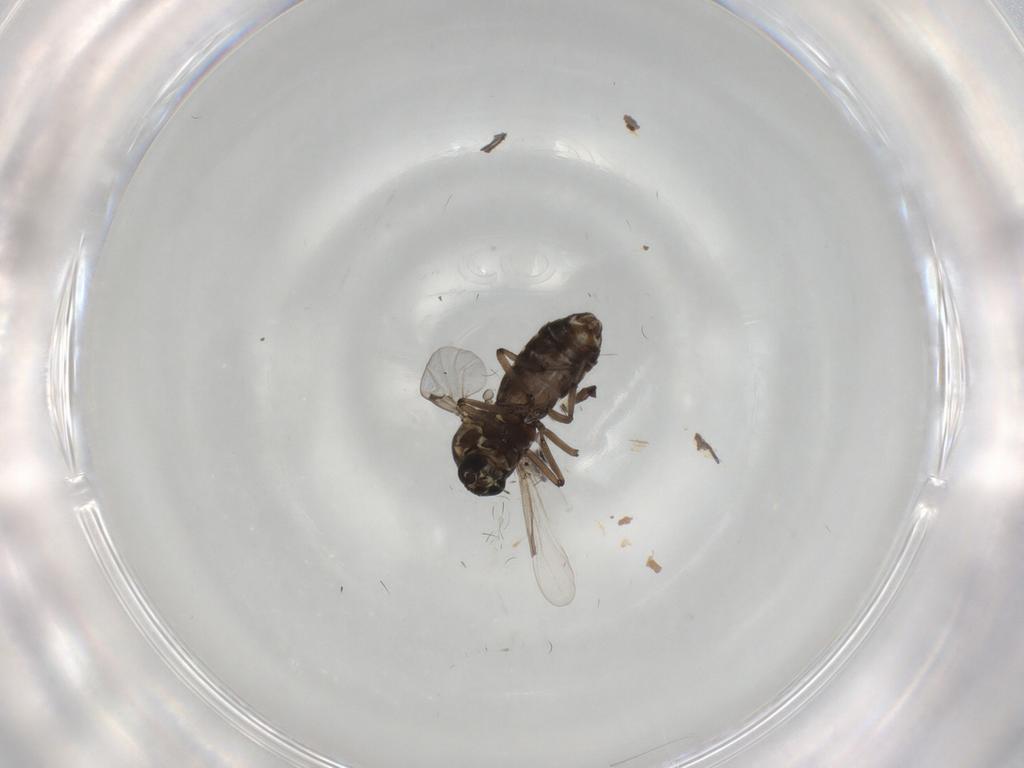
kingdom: Animalia
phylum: Arthropoda
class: Insecta
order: Diptera
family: Ceratopogonidae
